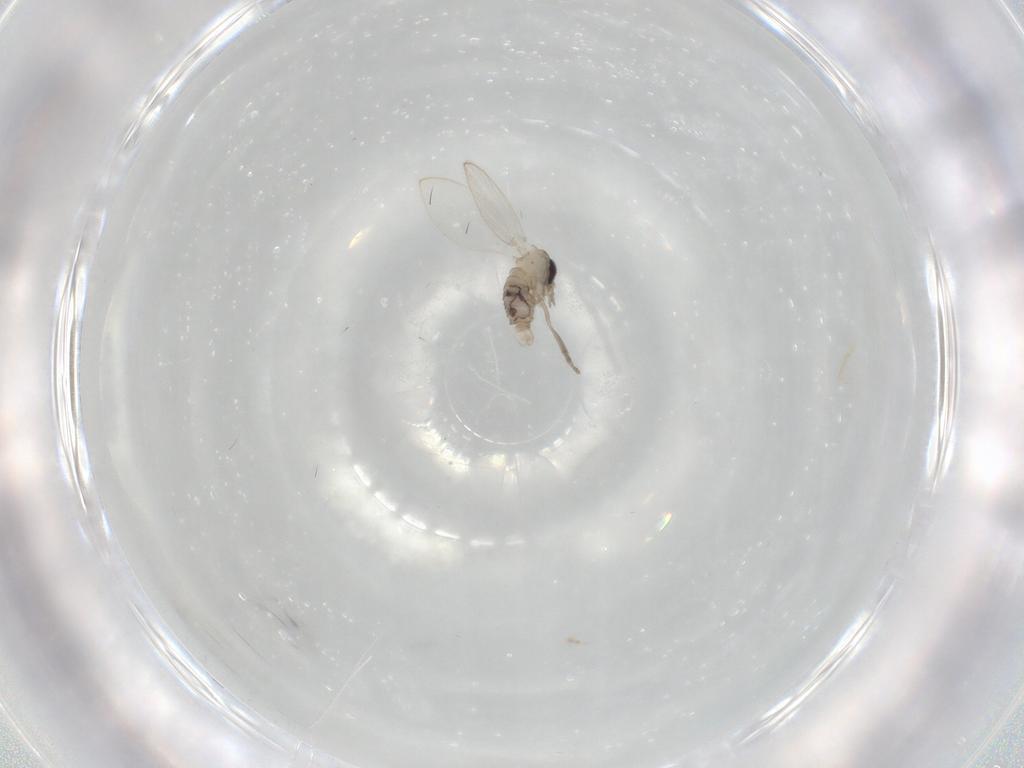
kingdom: Animalia
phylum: Arthropoda
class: Insecta
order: Diptera
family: Psychodidae
